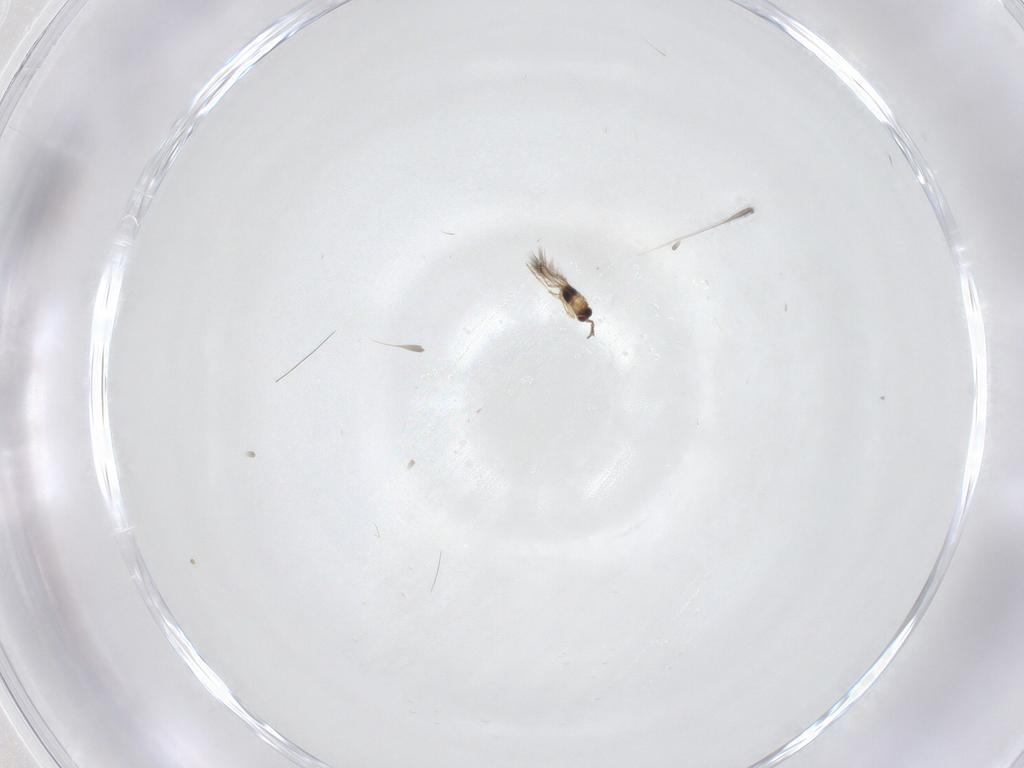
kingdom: Animalia
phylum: Arthropoda
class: Insecta
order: Hymenoptera
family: Mymaridae
